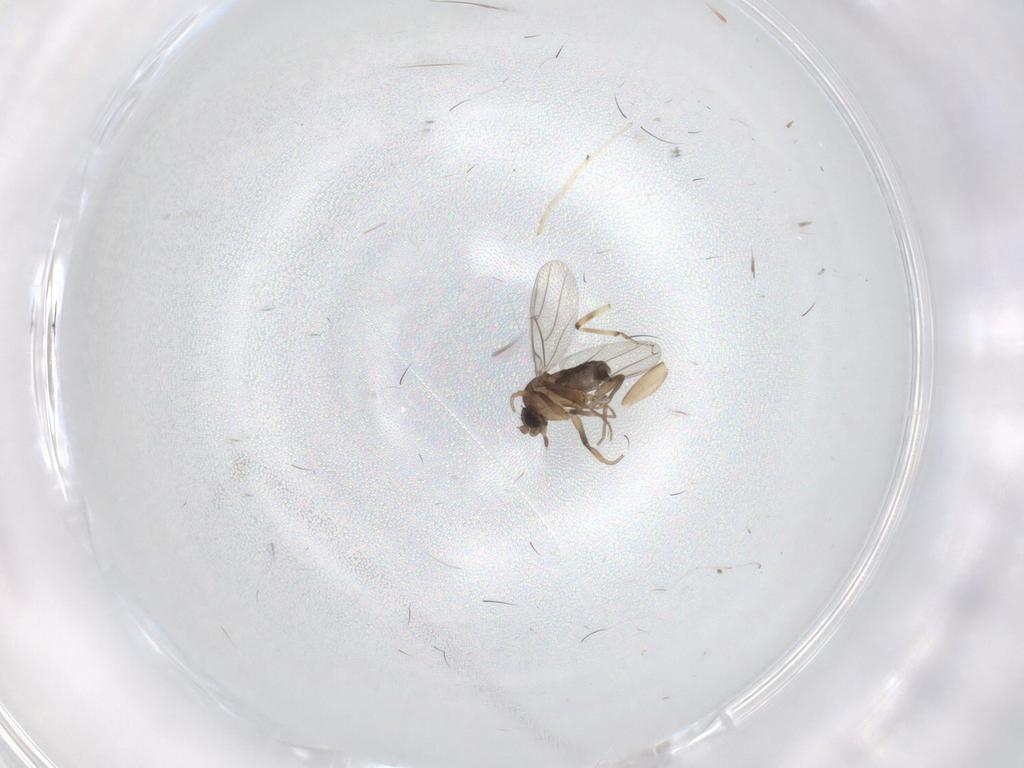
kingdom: Animalia
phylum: Arthropoda
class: Insecta
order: Diptera
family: Phoridae
